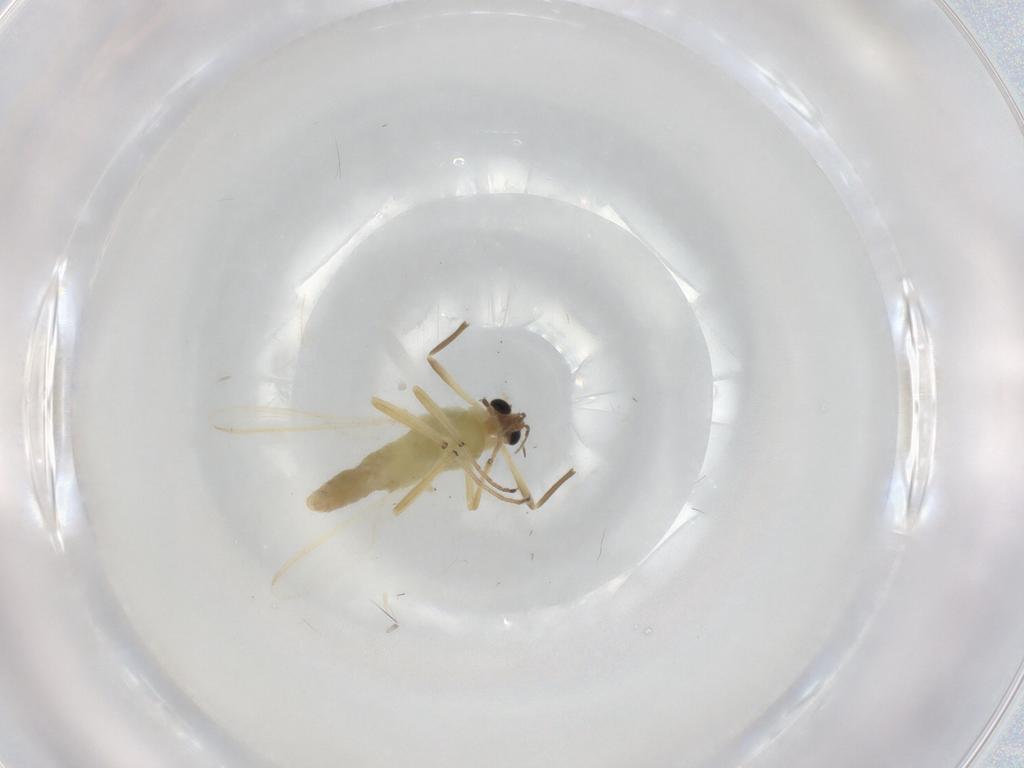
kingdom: Animalia
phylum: Arthropoda
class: Insecta
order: Diptera
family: Chironomidae
